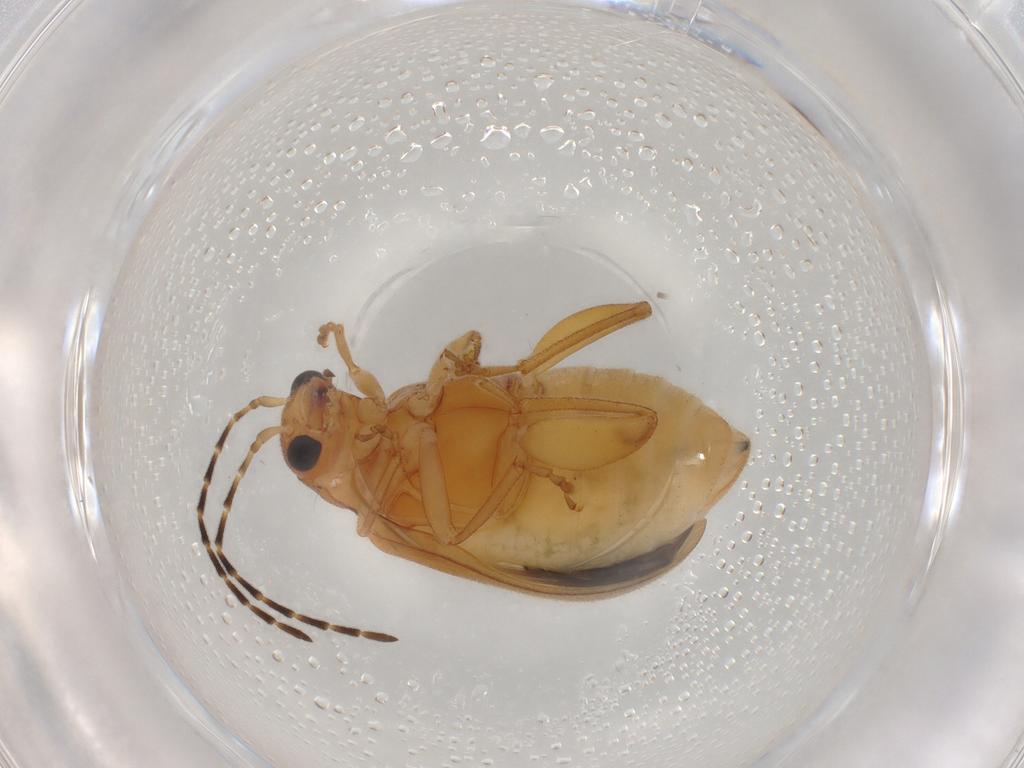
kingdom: Animalia
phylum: Arthropoda
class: Insecta
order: Coleoptera
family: Chrysomelidae
